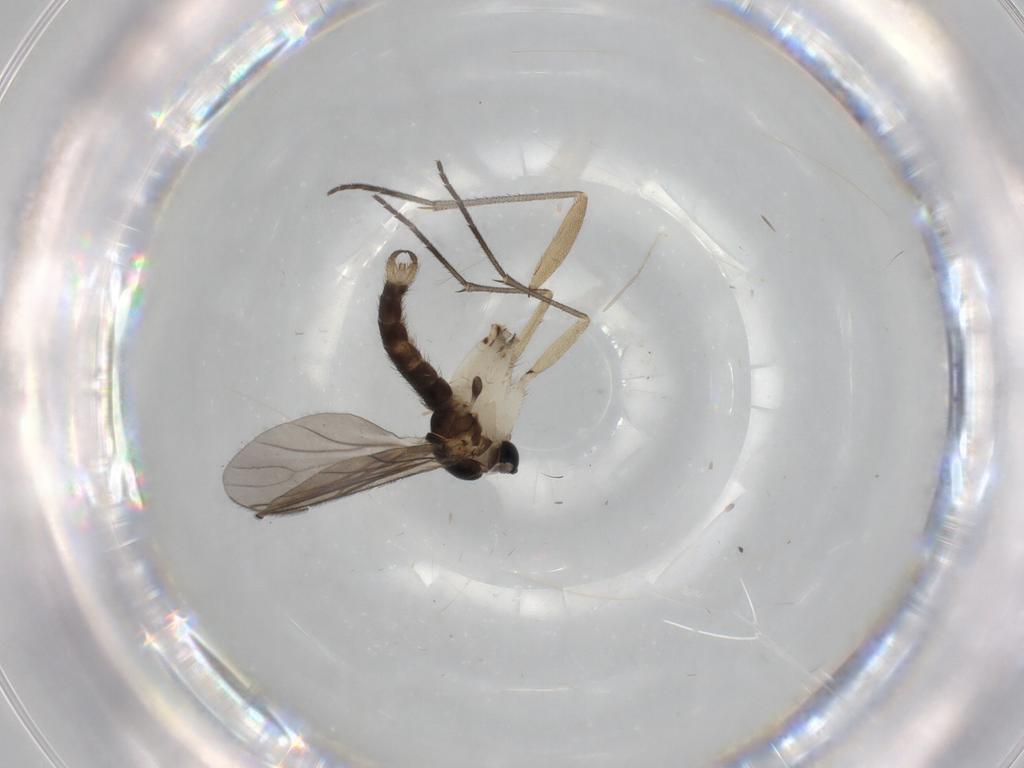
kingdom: Animalia
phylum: Arthropoda
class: Insecta
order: Diptera
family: Sciaridae
